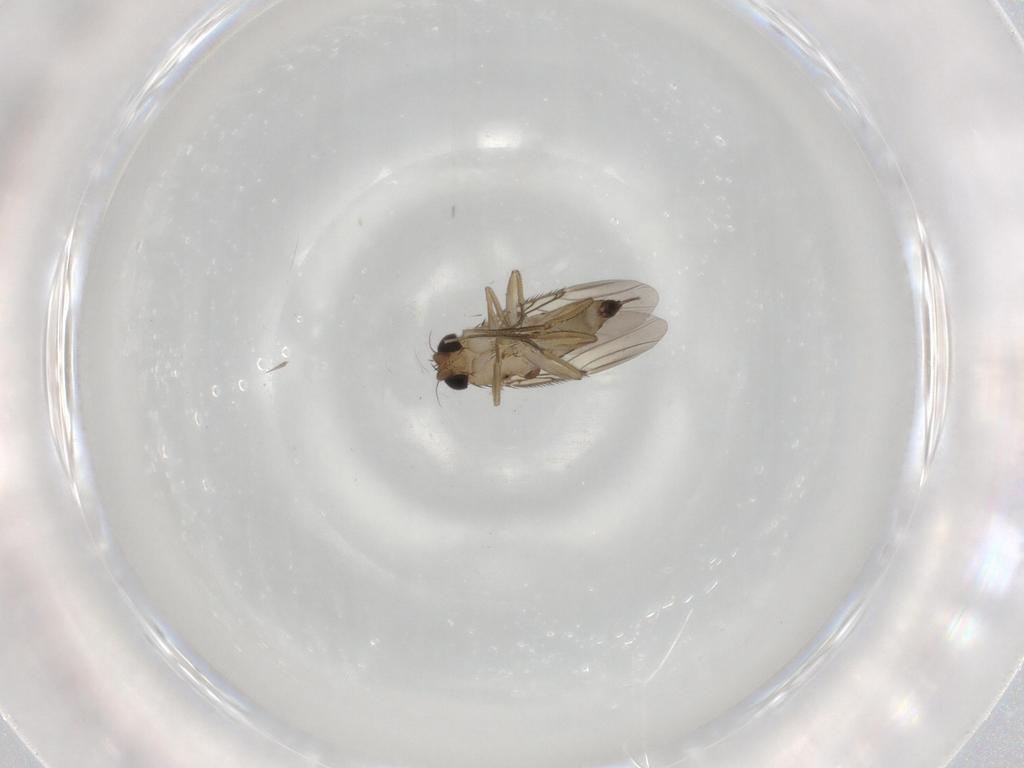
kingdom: Animalia
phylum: Arthropoda
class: Insecta
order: Diptera
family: Phoridae
